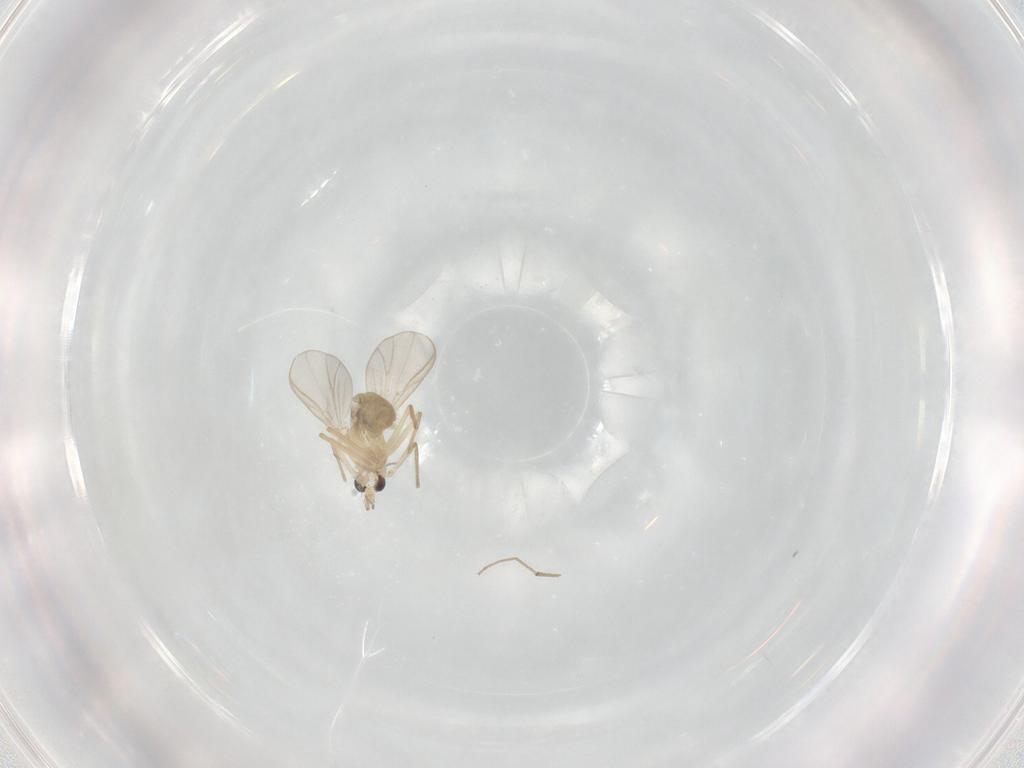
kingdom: Animalia
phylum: Arthropoda
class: Insecta
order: Diptera
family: Chironomidae
